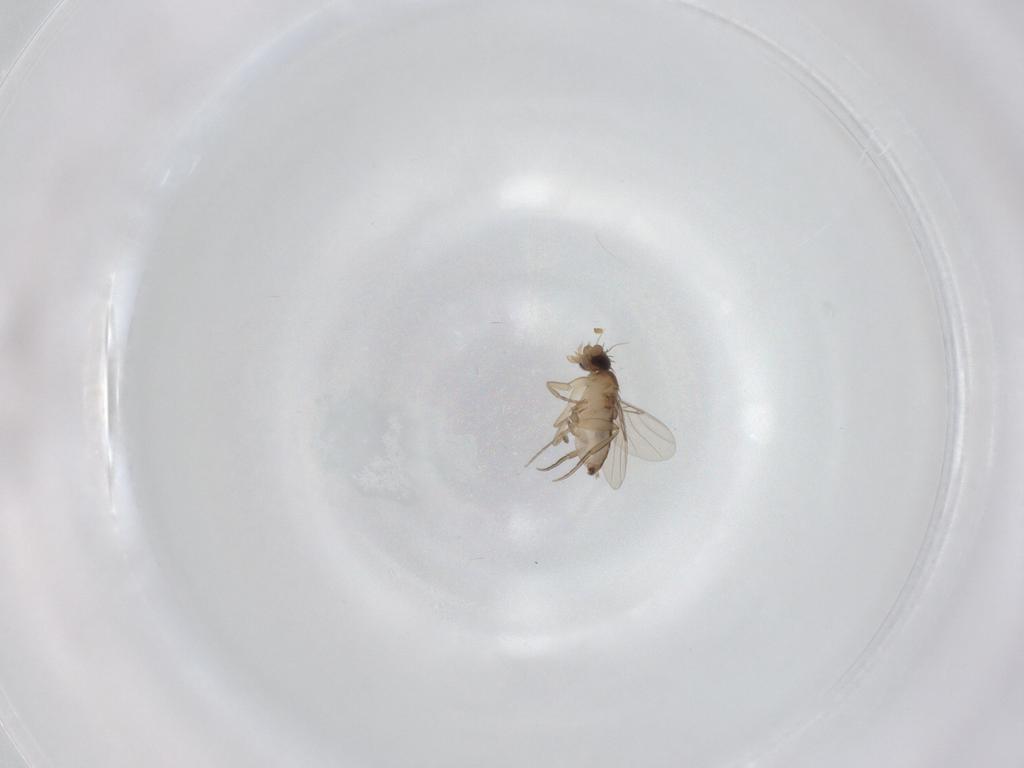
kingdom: Animalia
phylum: Arthropoda
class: Insecta
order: Diptera
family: Phoridae
